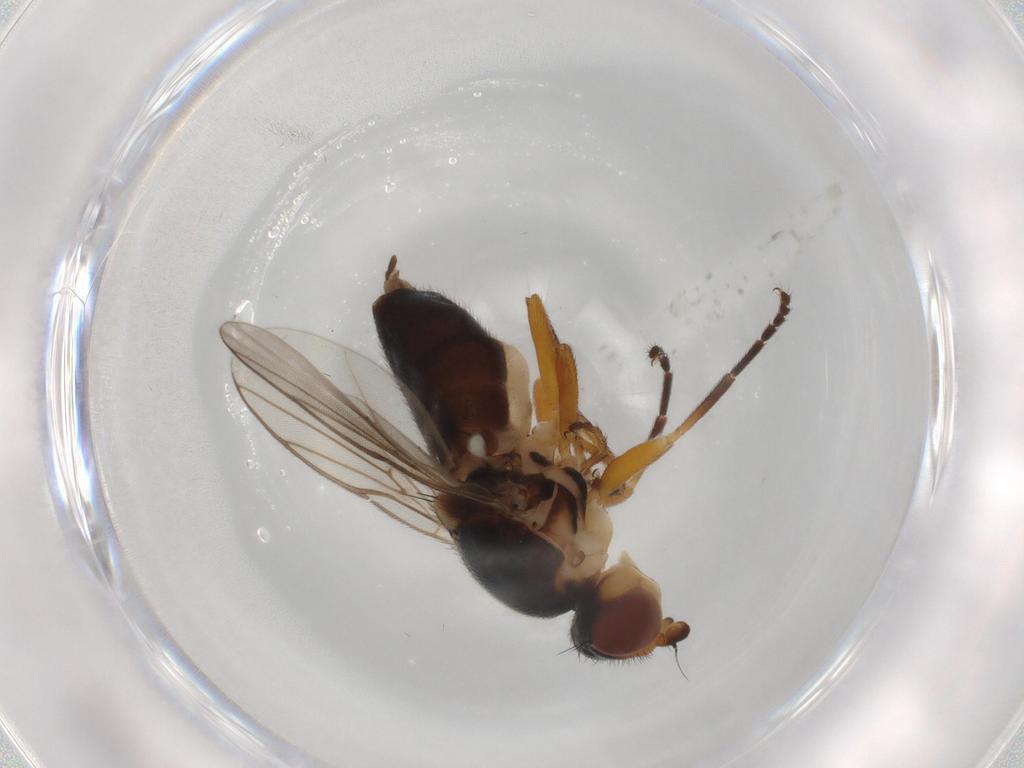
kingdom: Animalia
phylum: Arthropoda
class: Insecta
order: Diptera
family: Chloropidae
